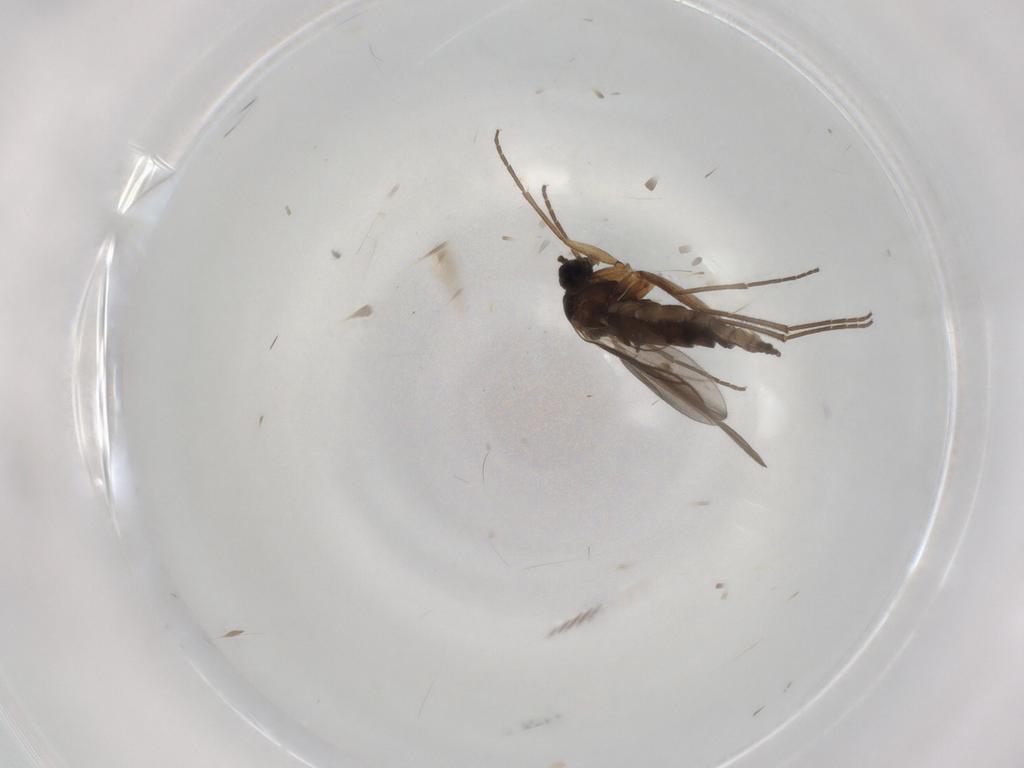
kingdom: Animalia
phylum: Arthropoda
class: Insecta
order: Diptera
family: Sciaridae
